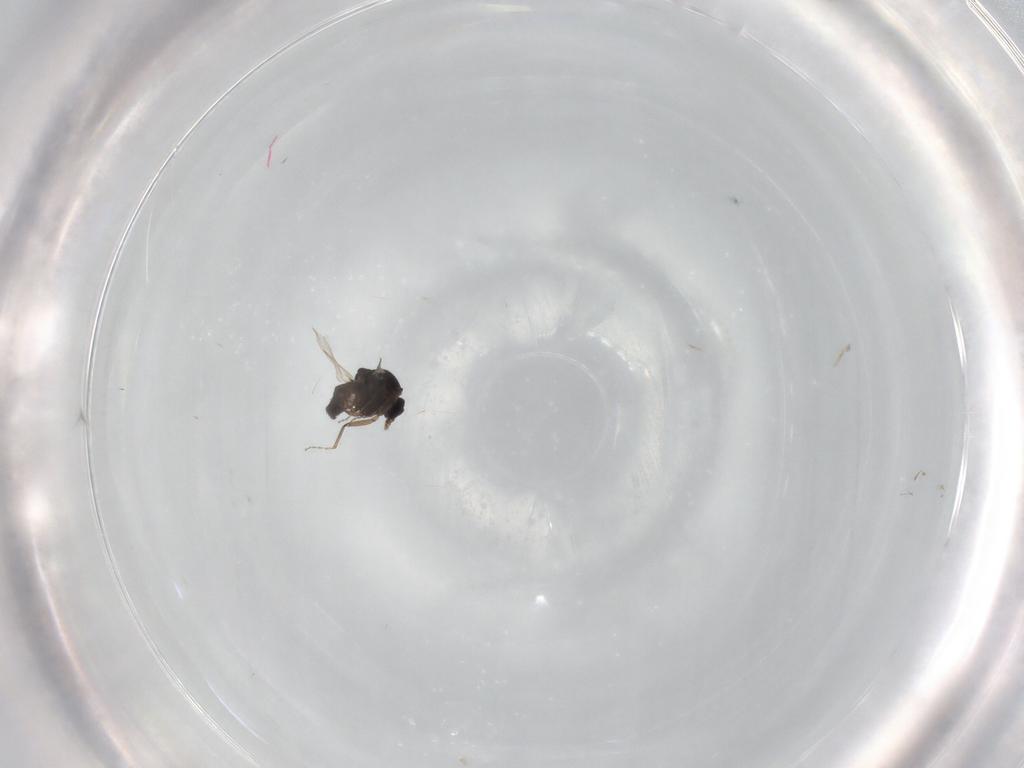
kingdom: Animalia
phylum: Arthropoda
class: Insecta
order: Diptera
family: Ceratopogonidae
